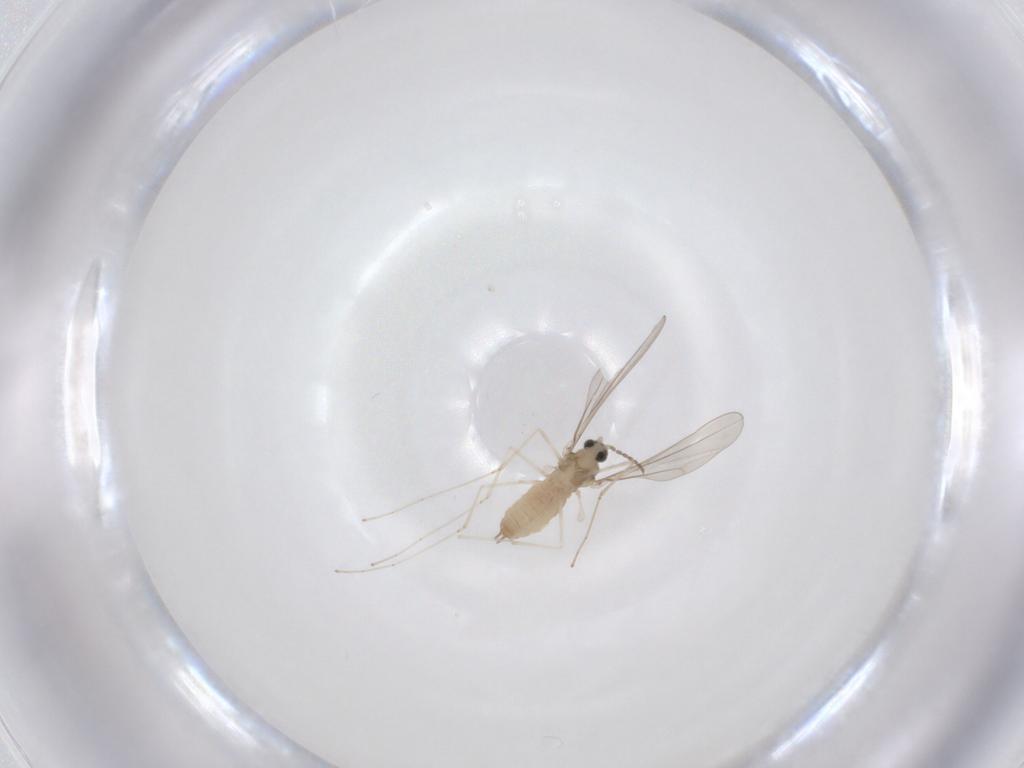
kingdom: Animalia
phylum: Arthropoda
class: Insecta
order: Diptera
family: Cecidomyiidae
